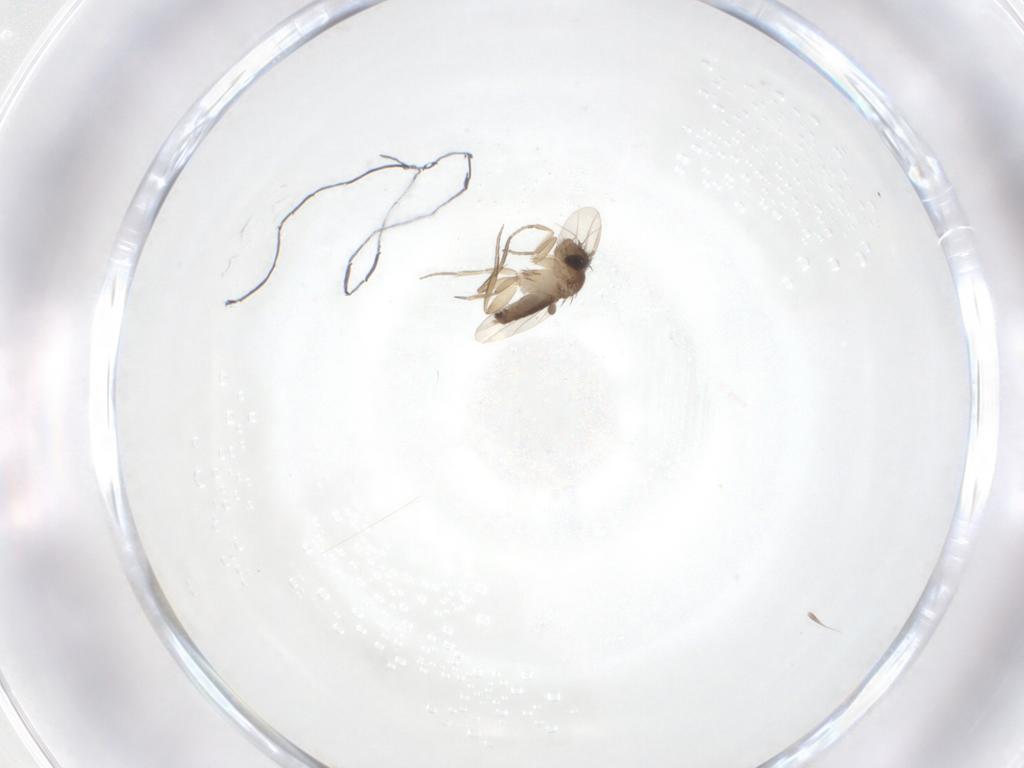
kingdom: Animalia
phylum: Arthropoda
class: Insecta
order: Diptera
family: Phoridae
